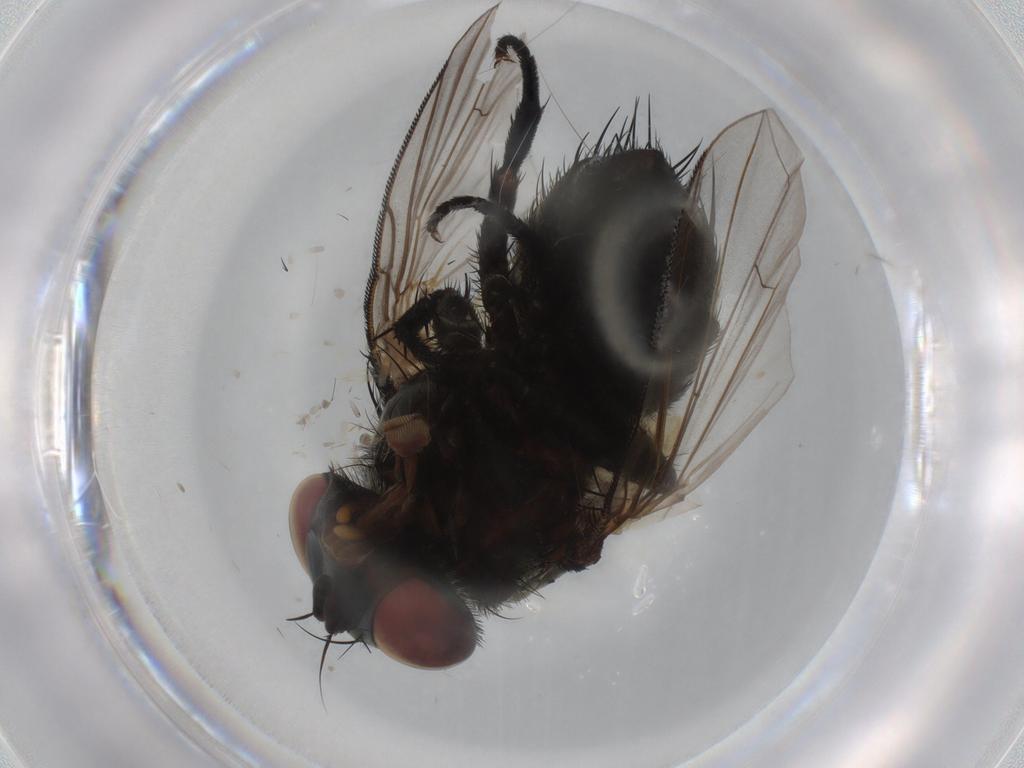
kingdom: Animalia
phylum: Arthropoda
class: Insecta
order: Diptera
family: Tachinidae
